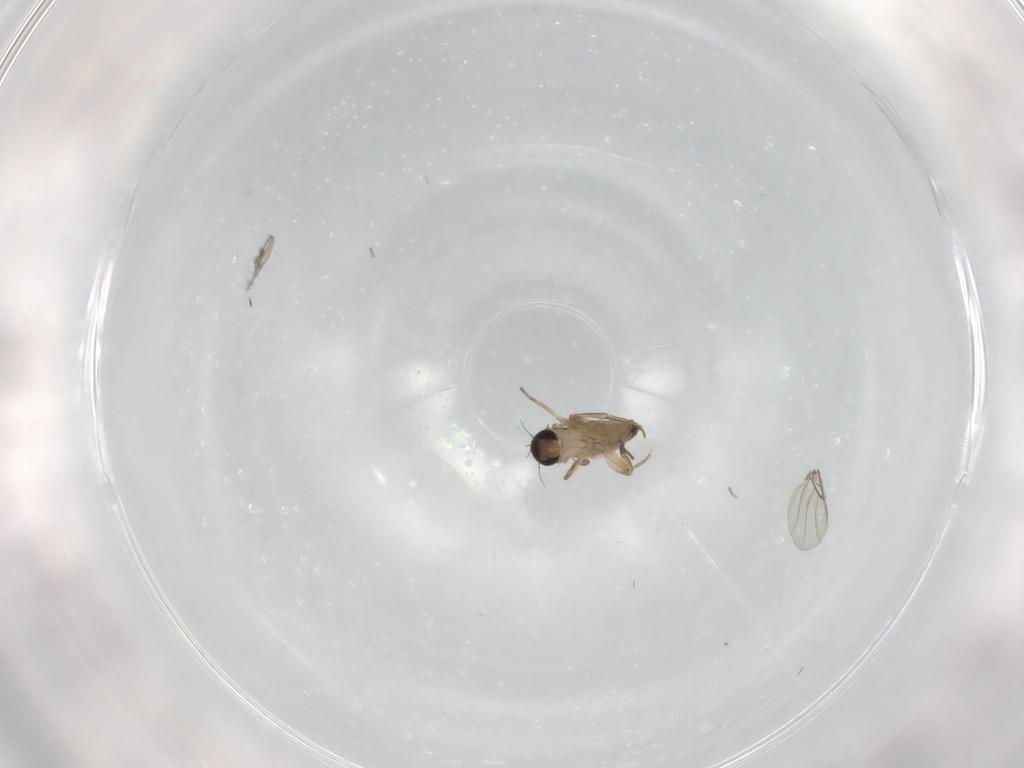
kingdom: Animalia
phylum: Arthropoda
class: Insecta
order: Diptera
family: Phoridae
